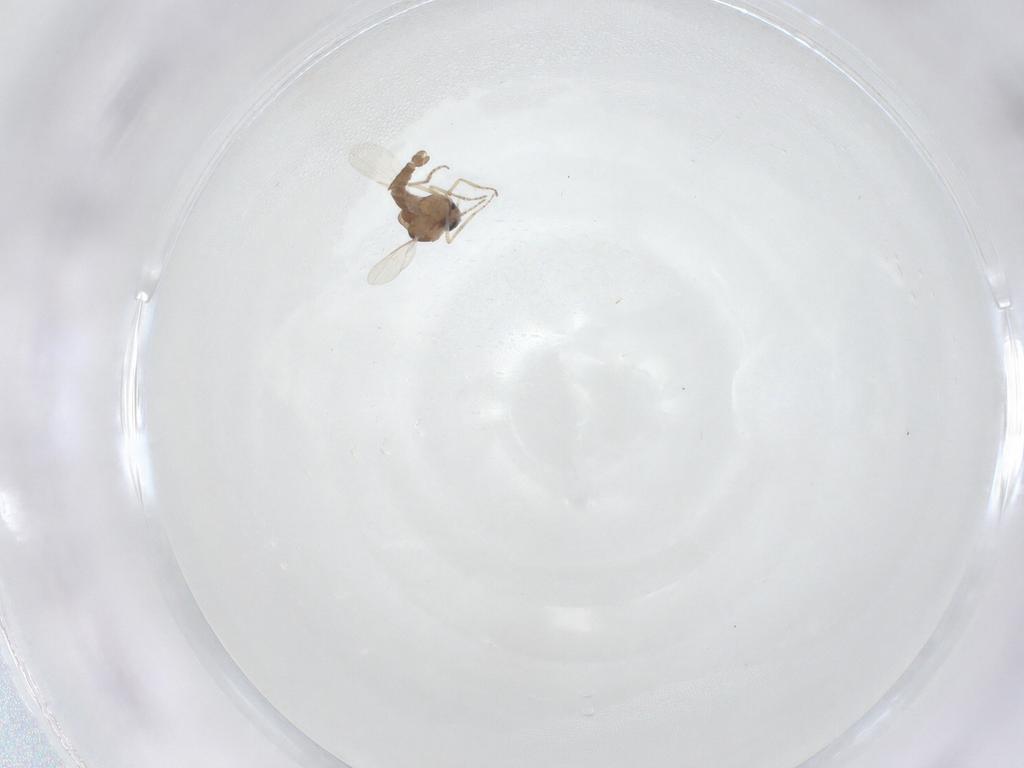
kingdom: Animalia
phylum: Arthropoda
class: Insecta
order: Diptera
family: Ceratopogonidae
